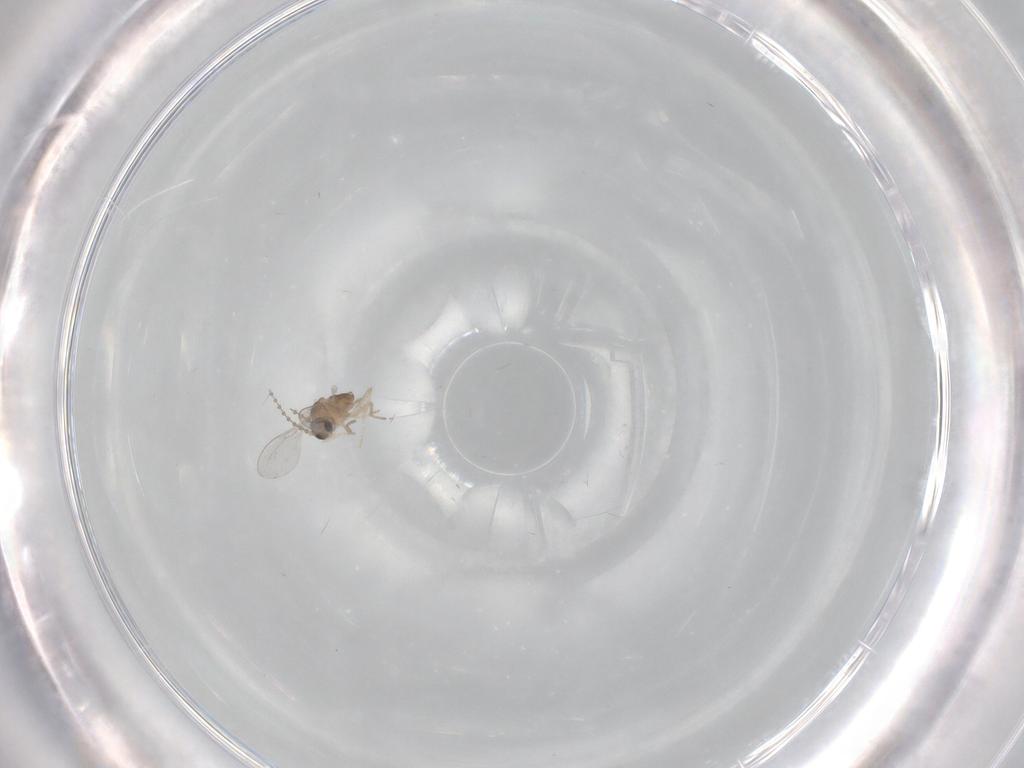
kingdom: Animalia
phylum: Arthropoda
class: Insecta
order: Diptera
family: Cecidomyiidae
